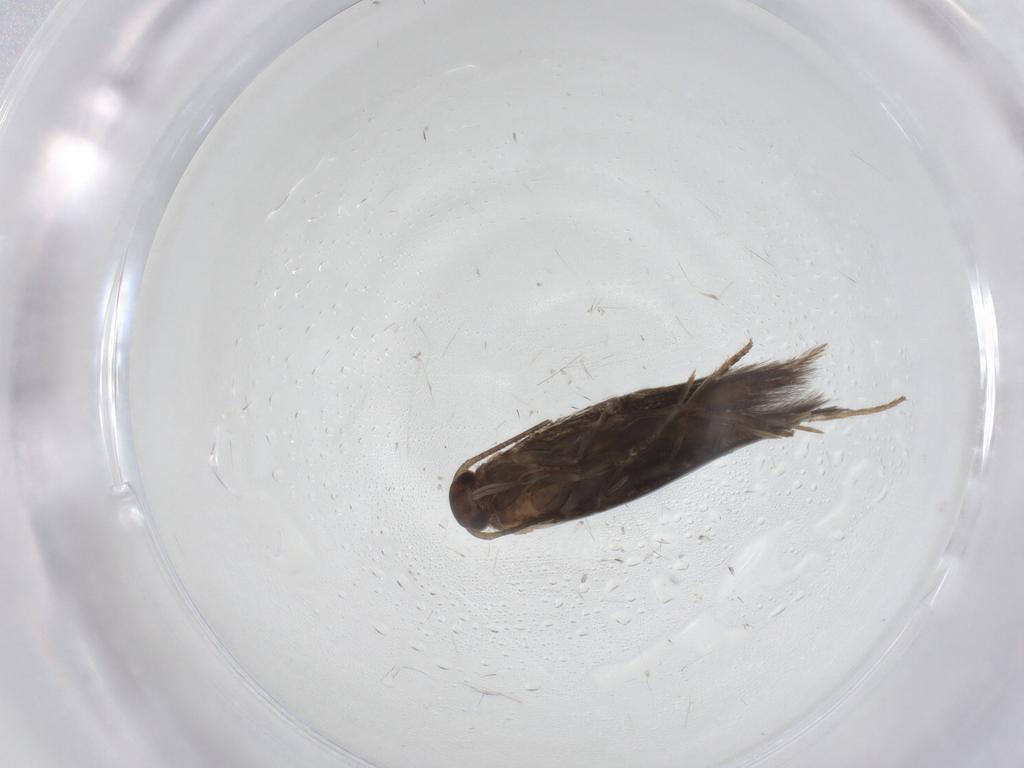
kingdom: Animalia
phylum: Arthropoda
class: Insecta
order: Lepidoptera
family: Elachistidae
